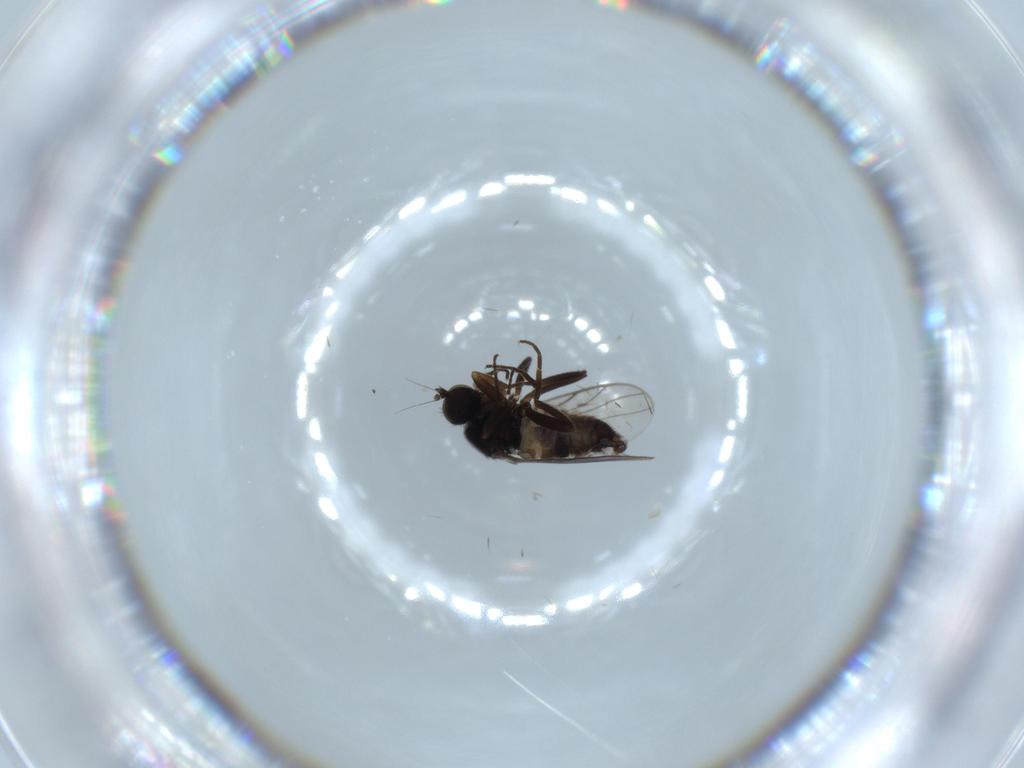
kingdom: Animalia
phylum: Arthropoda
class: Insecta
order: Diptera
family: Hybotidae
